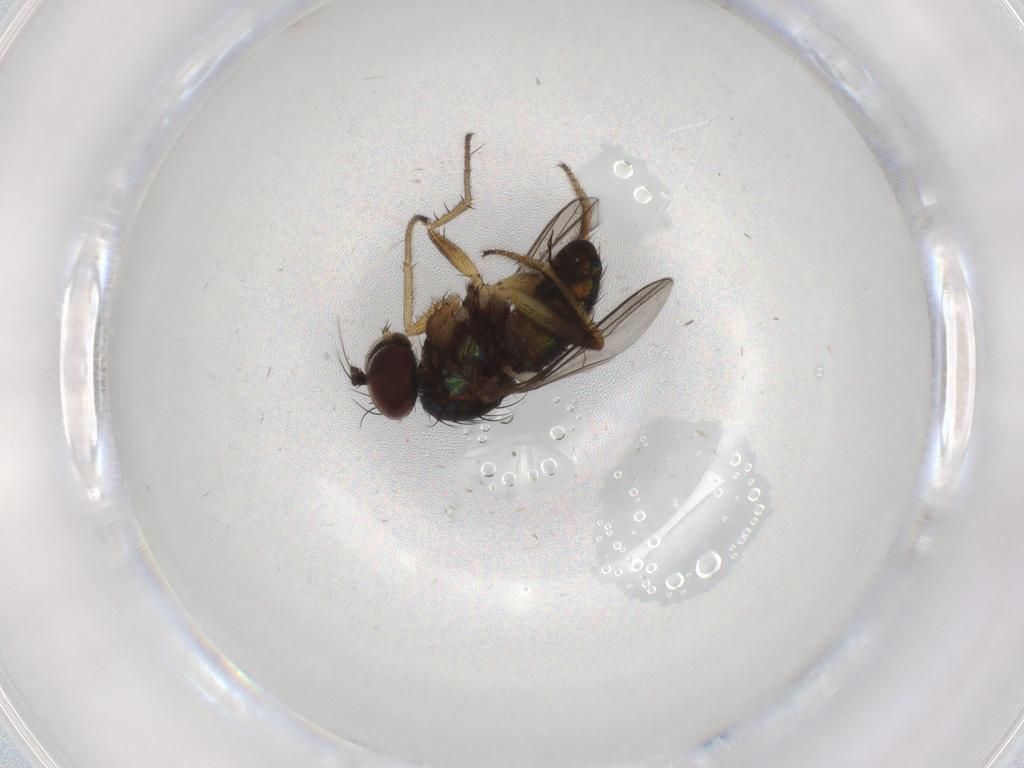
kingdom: Animalia
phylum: Arthropoda
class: Insecta
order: Diptera
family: Dolichopodidae
